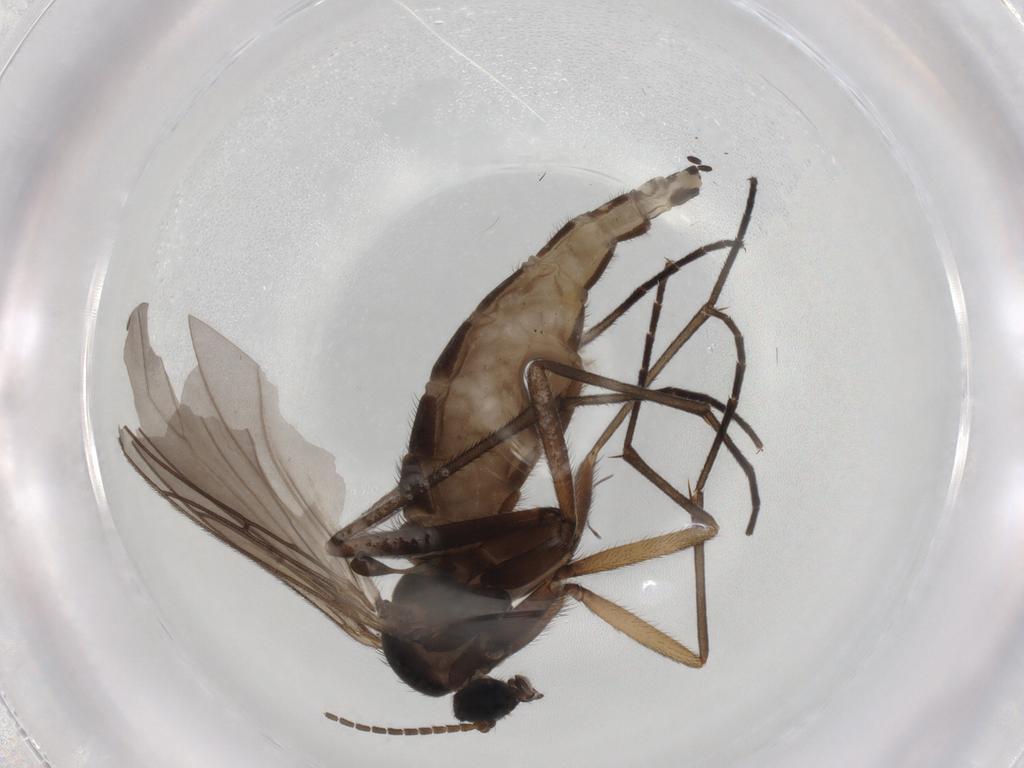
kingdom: Animalia
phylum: Arthropoda
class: Insecta
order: Diptera
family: Sciaridae
